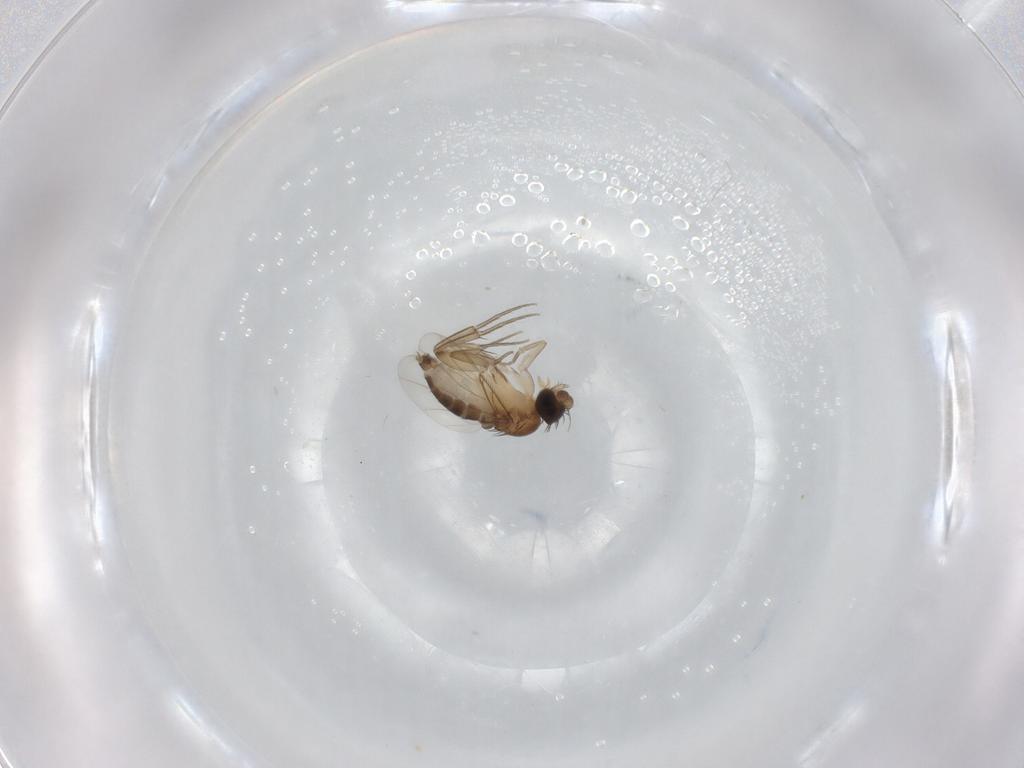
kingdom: Animalia
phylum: Arthropoda
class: Insecta
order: Diptera
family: Phoridae
